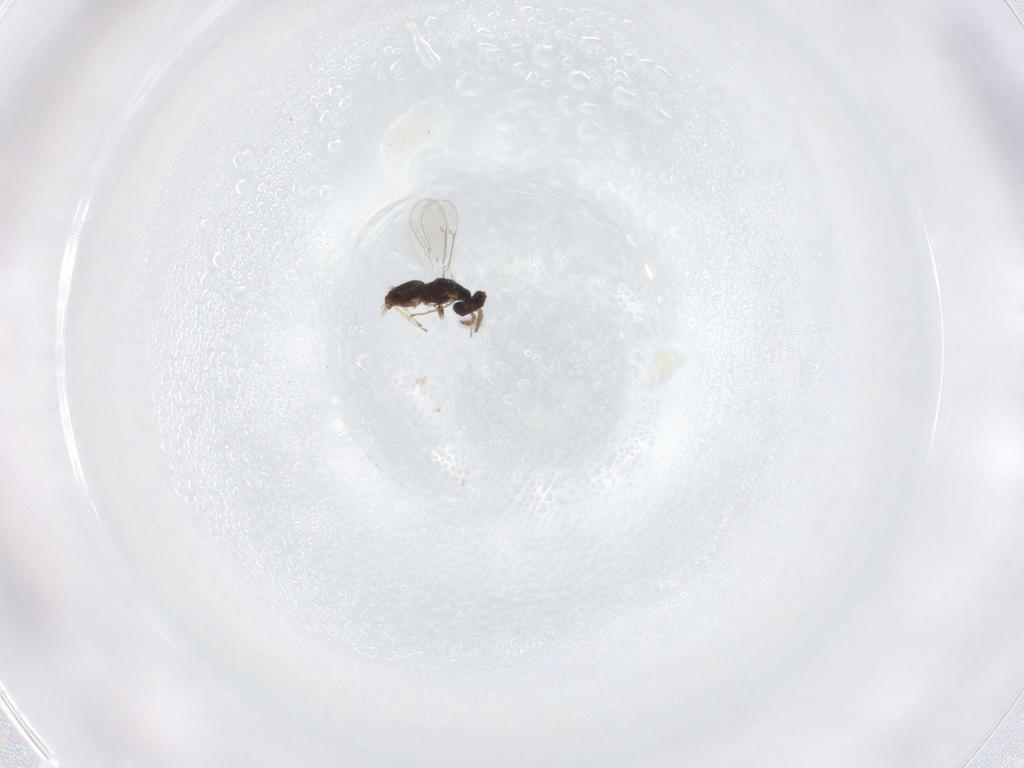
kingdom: Animalia
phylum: Arthropoda
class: Insecta
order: Hymenoptera
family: Eulophidae
